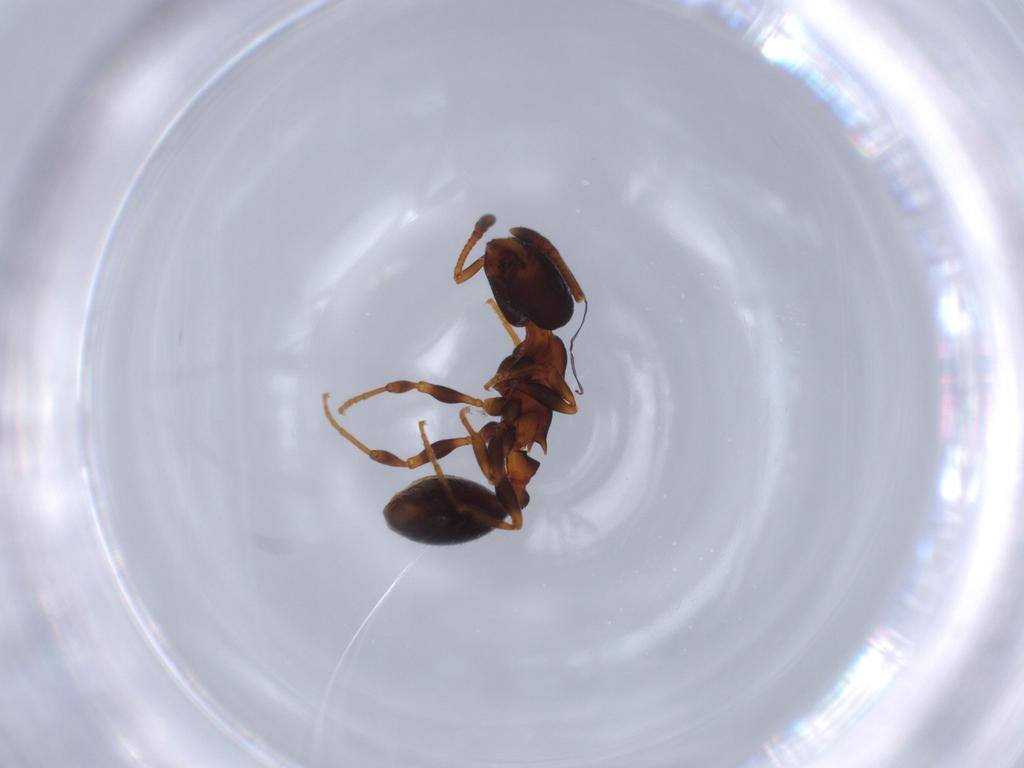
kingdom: Animalia
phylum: Arthropoda
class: Insecta
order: Hymenoptera
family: Formicidae
